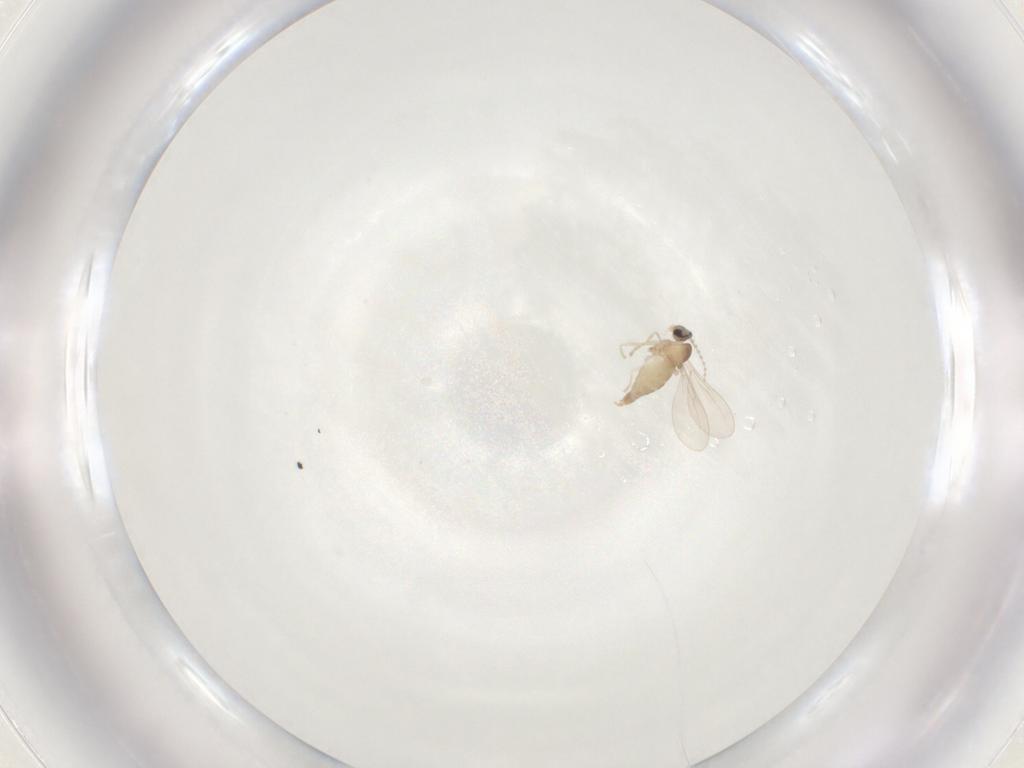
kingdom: Animalia
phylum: Arthropoda
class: Insecta
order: Diptera
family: Cecidomyiidae
